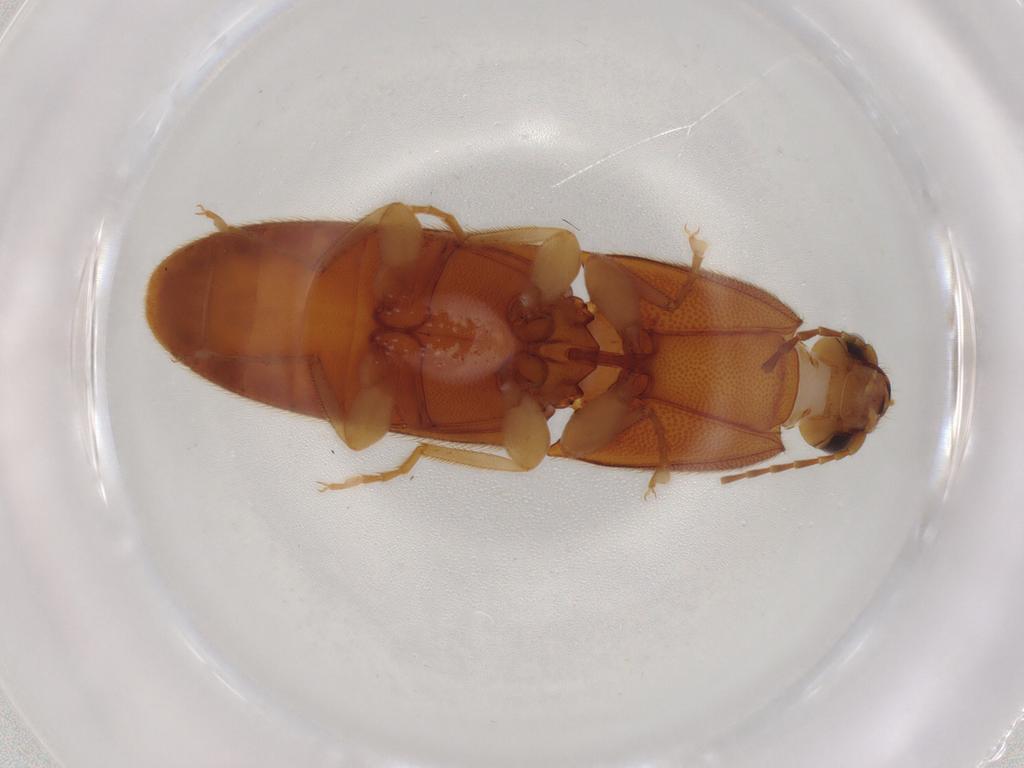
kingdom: Animalia
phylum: Arthropoda
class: Insecta
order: Coleoptera
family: Elateridae
